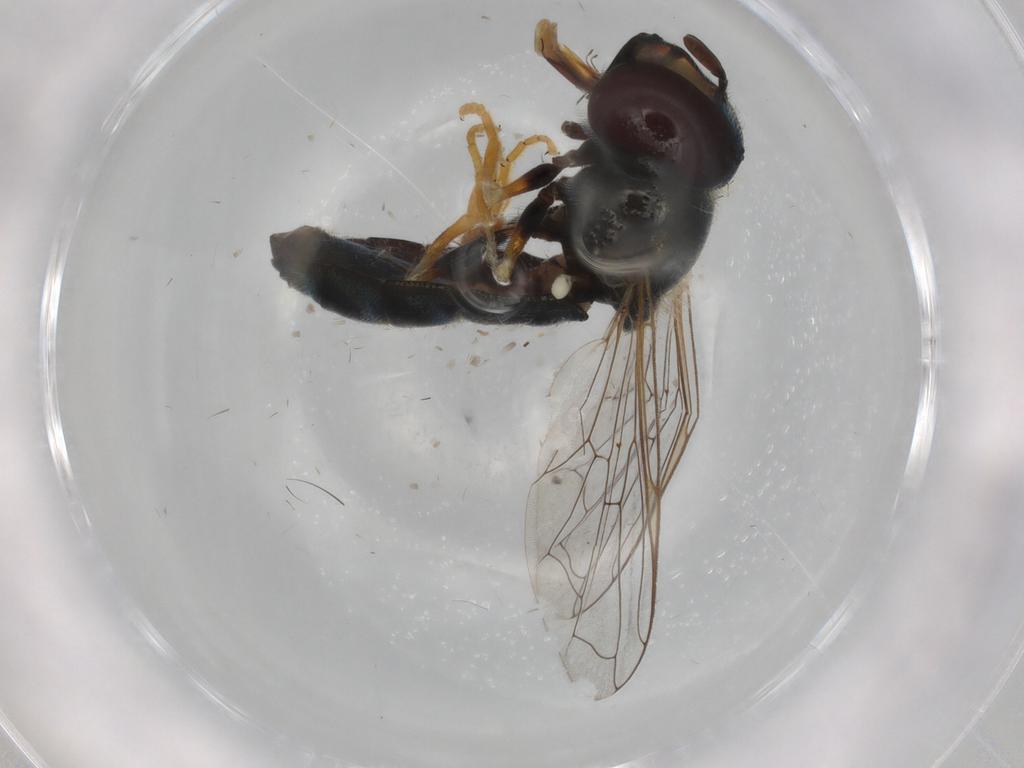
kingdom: Animalia
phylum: Arthropoda
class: Insecta
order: Diptera
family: Syrphidae
